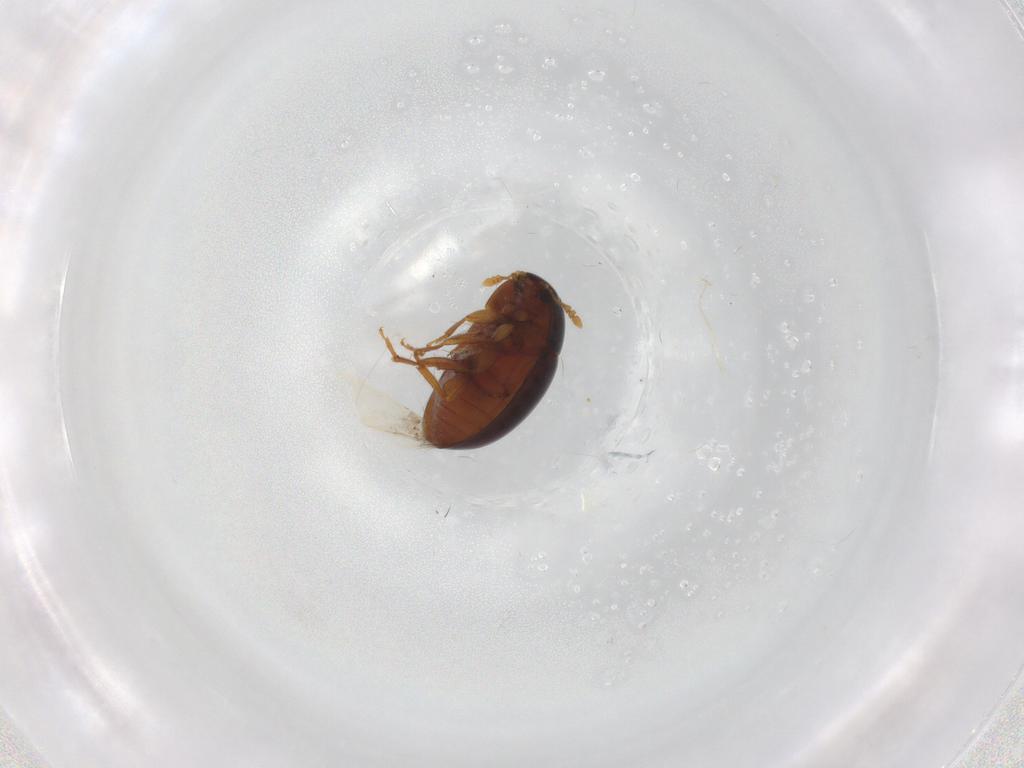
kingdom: Animalia
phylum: Arthropoda
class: Insecta
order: Coleoptera
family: Phalacridae
